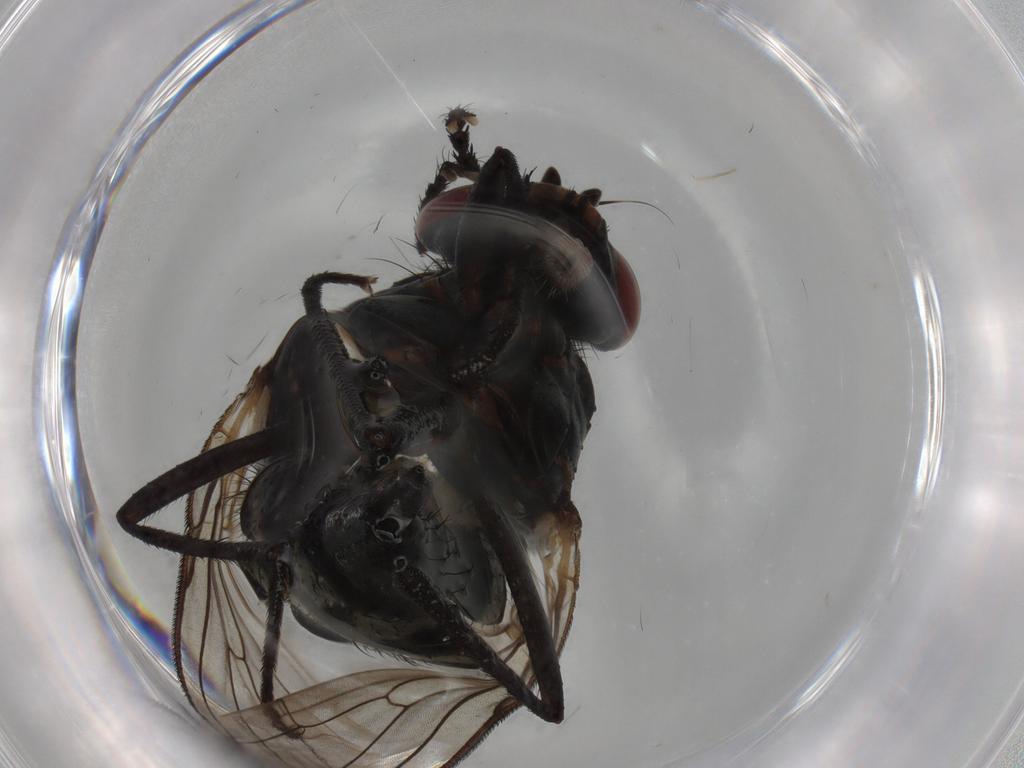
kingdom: Animalia
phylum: Arthropoda
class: Insecta
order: Diptera
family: Anthomyiidae
